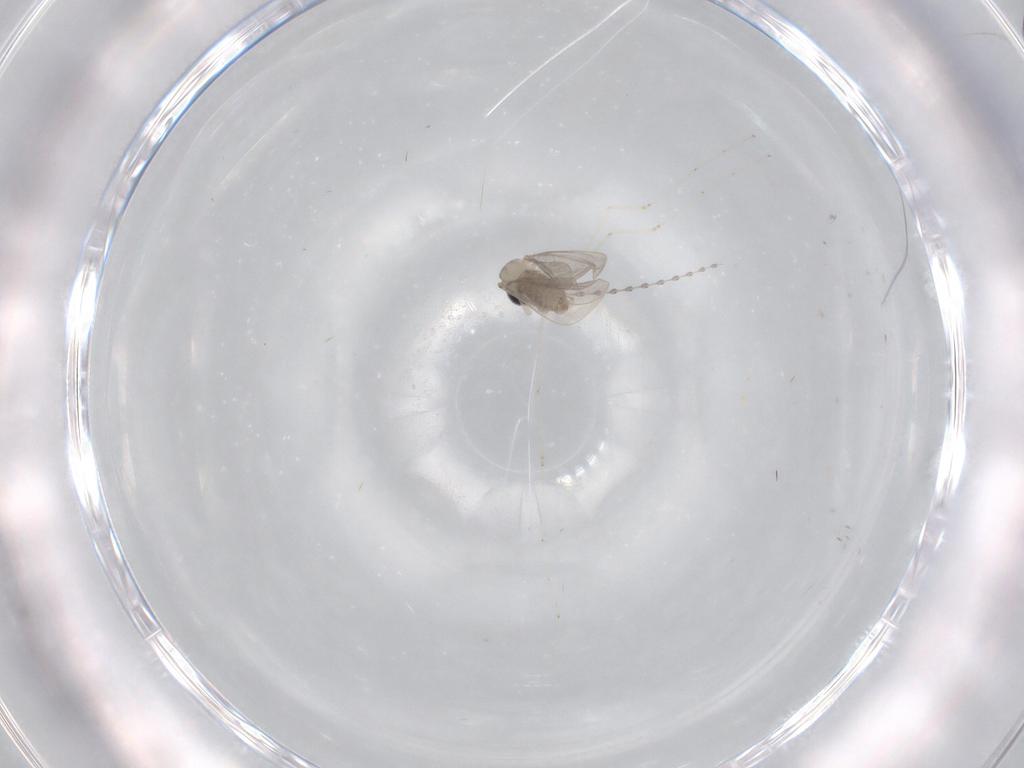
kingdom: Animalia
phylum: Arthropoda
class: Insecta
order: Diptera
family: Cecidomyiidae
